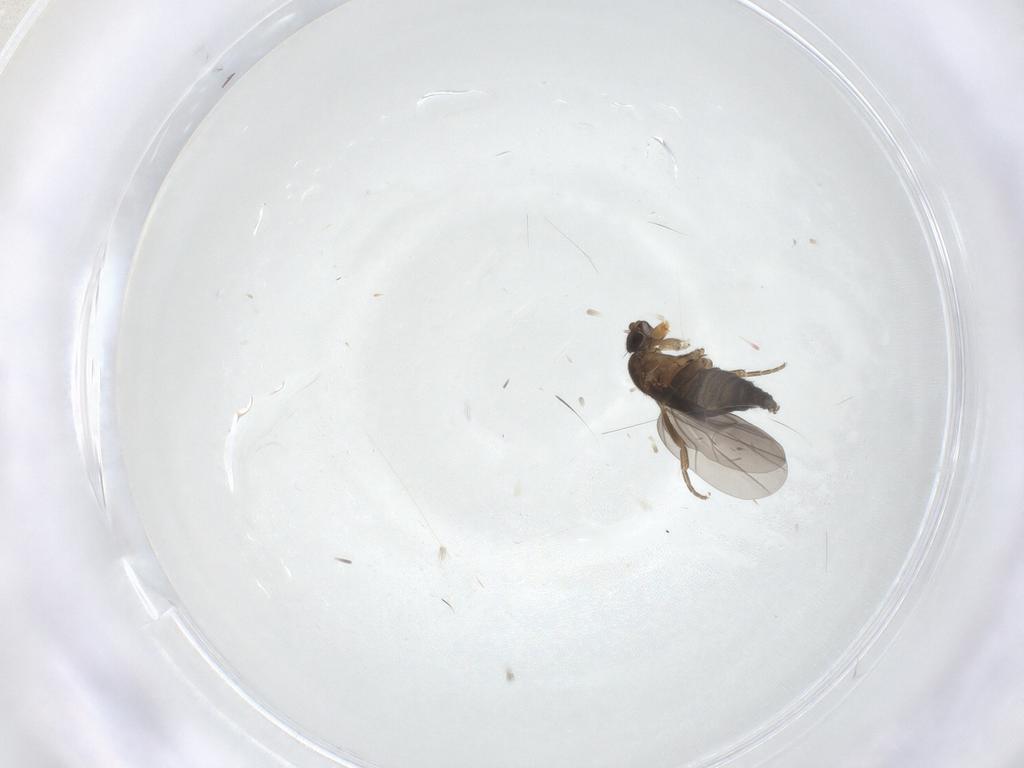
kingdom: Animalia
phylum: Arthropoda
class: Insecta
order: Diptera
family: Phoridae
